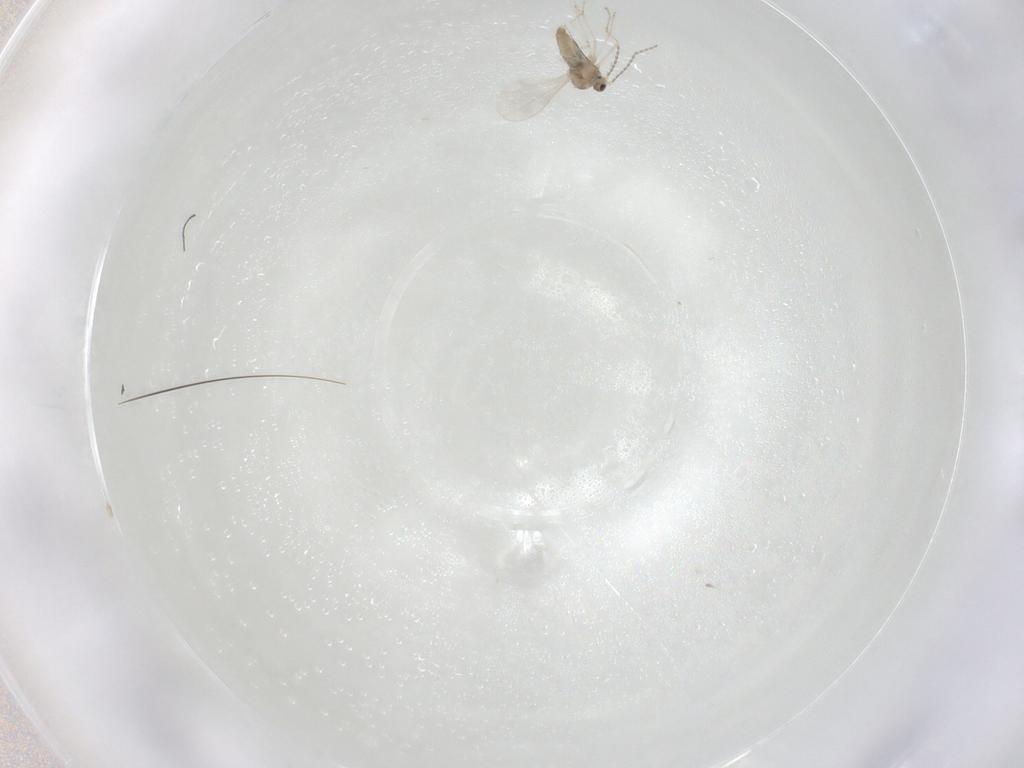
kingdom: Animalia
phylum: Arthropoda
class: Insecta
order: Diptera
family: Cecidomyiidae
